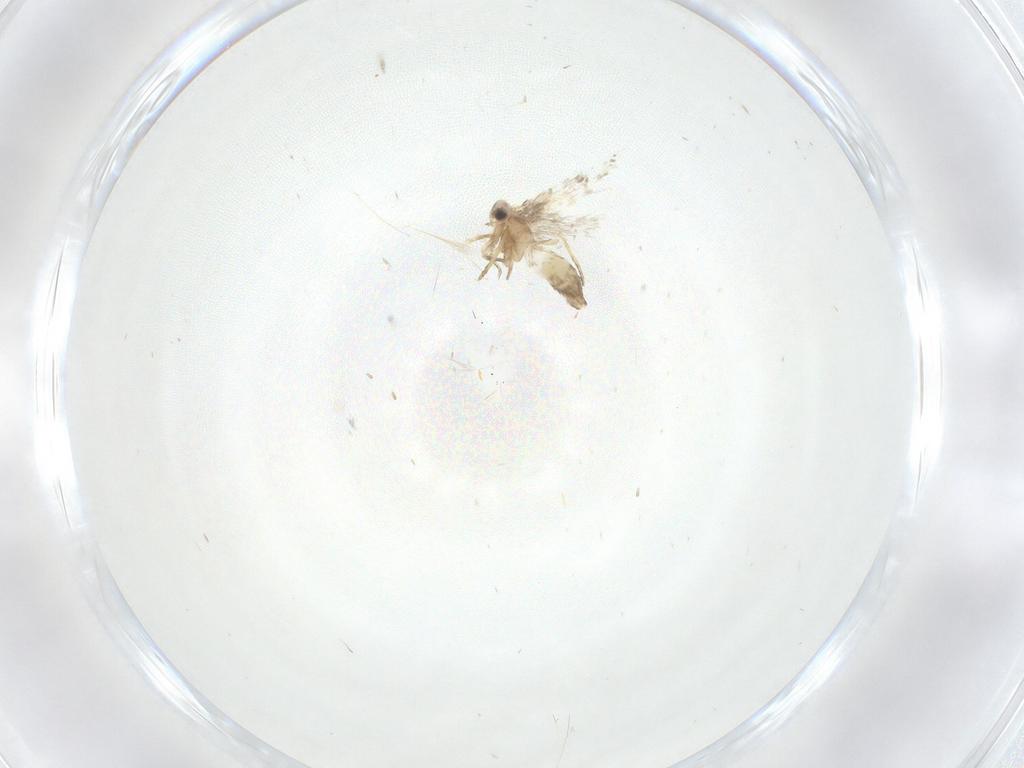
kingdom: Animalia
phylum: Arthropoda
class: Insecta
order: Lepidoptera
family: Nepticulidae
